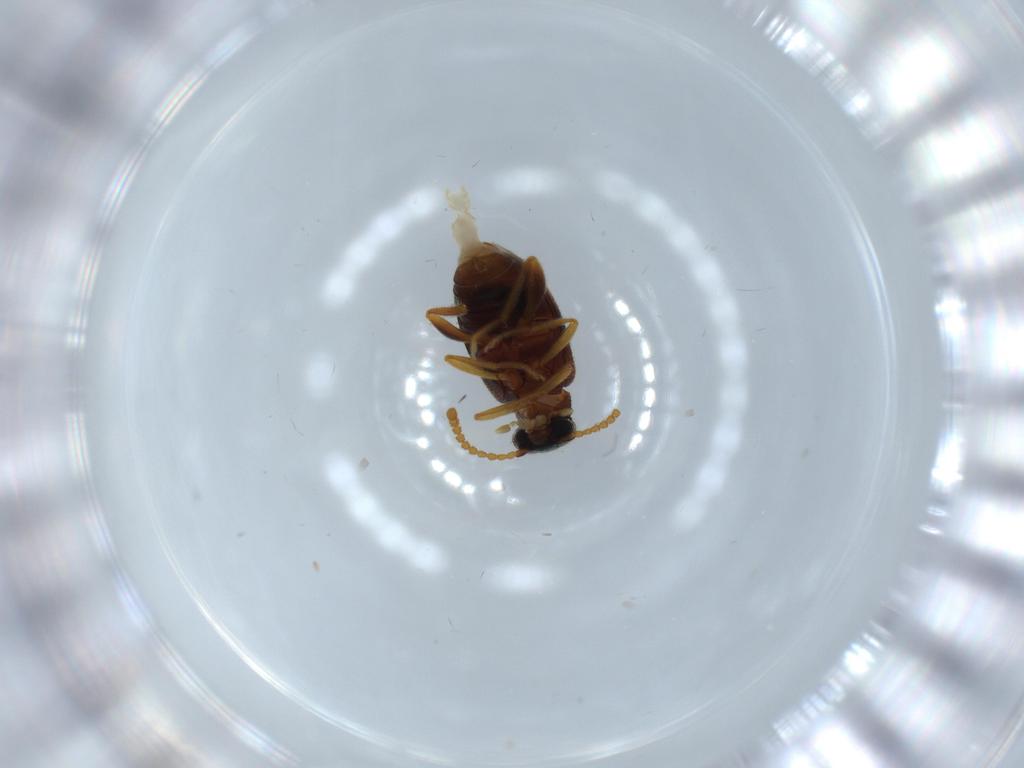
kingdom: Animalia
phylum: Arthropoda
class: Insecta
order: Coleoptera
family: Aderidae
